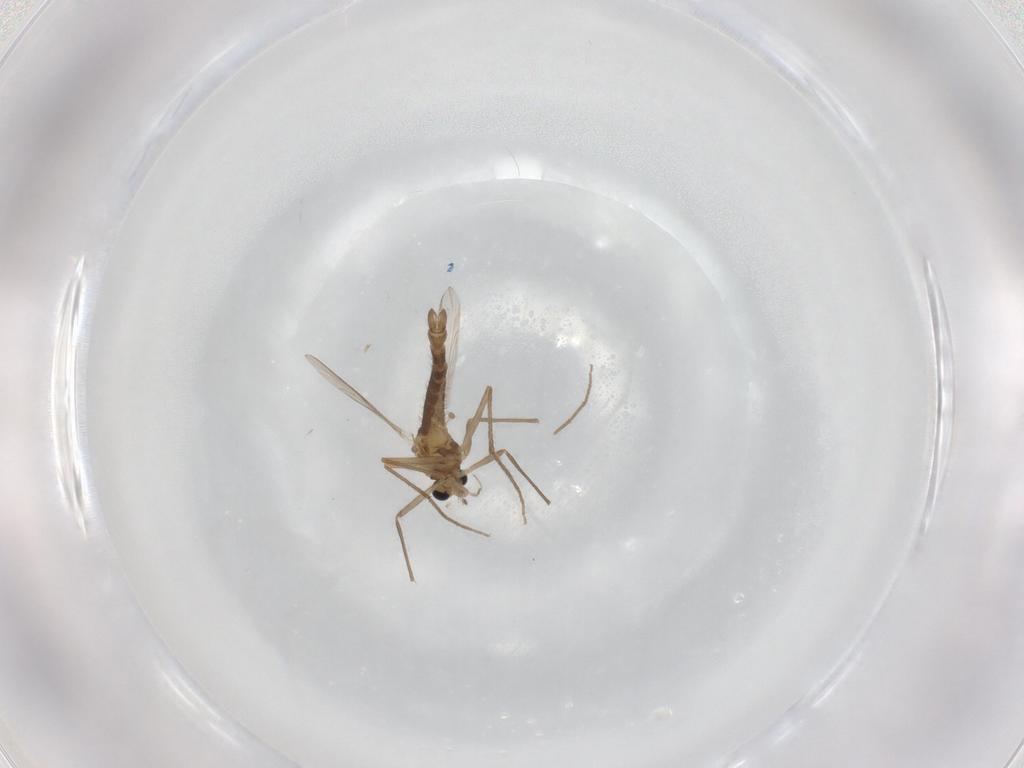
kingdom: Animalia
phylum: Arthropoda
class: Insecta
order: Diptera
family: Chironomidae
